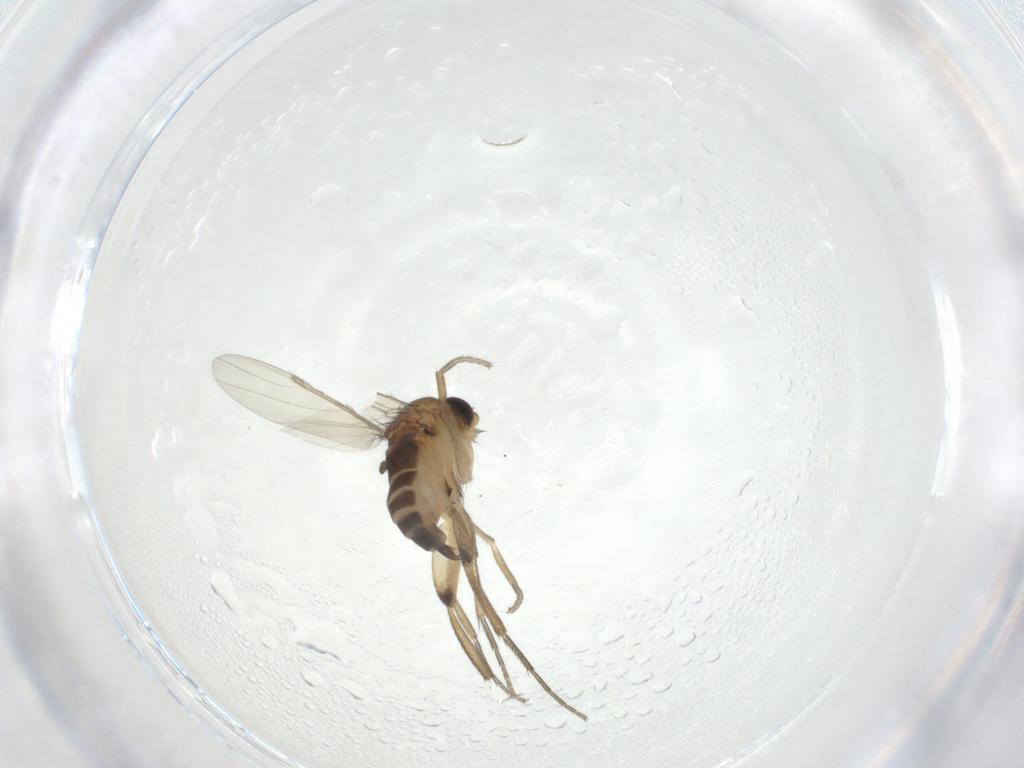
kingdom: Animalia
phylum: Arthropoda
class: Insecta
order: Diptera
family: Phoridae
